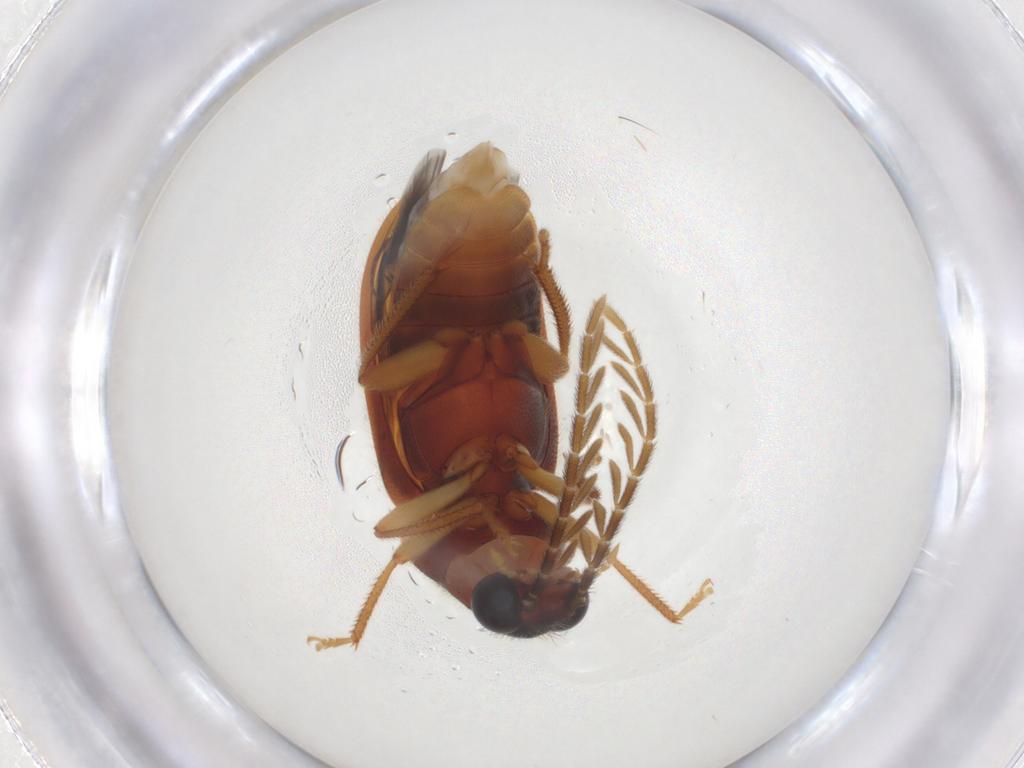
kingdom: Animalia
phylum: Arthropoda
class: Insecta
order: Coleoptera
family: Ptilodactylidae
